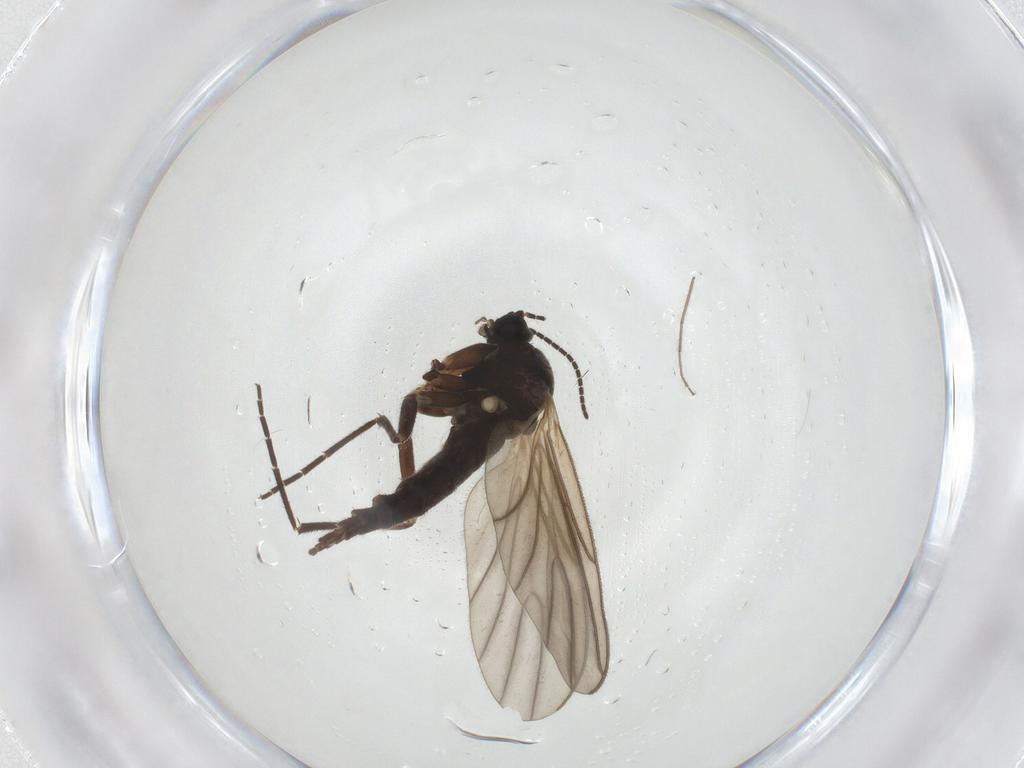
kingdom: Animalia
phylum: Arthropoda
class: Insecta
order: Diptera
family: Sciaridae
